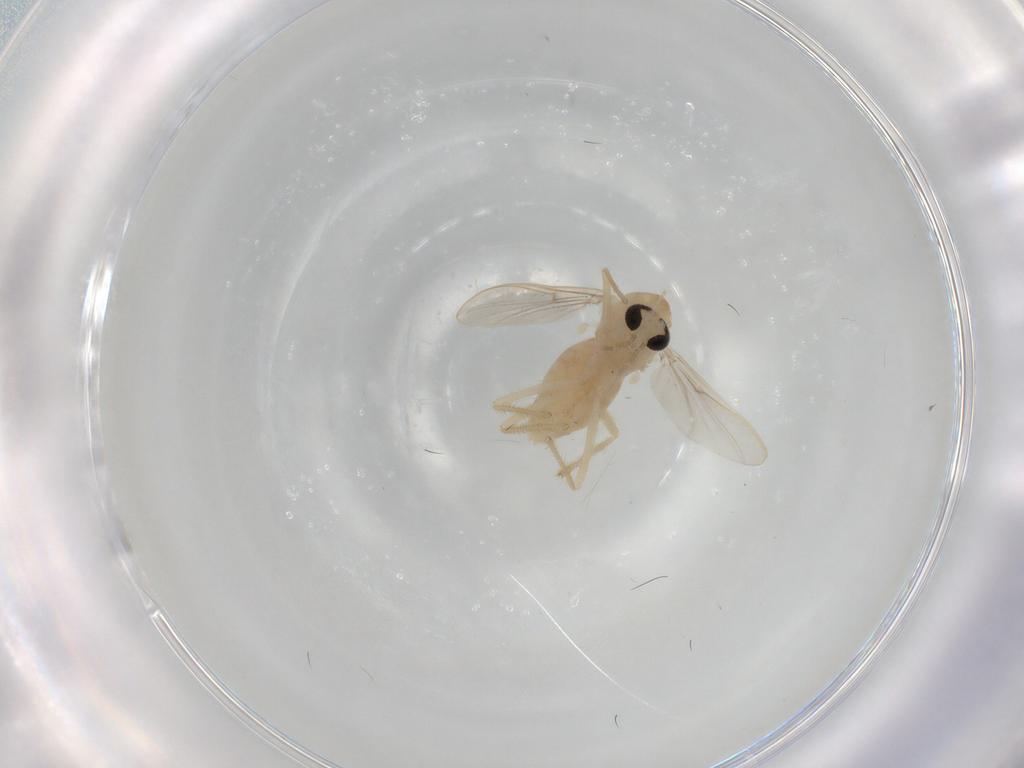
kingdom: Animalia
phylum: Arthropoda
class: Insecta
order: Diptera
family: Chironomidae
